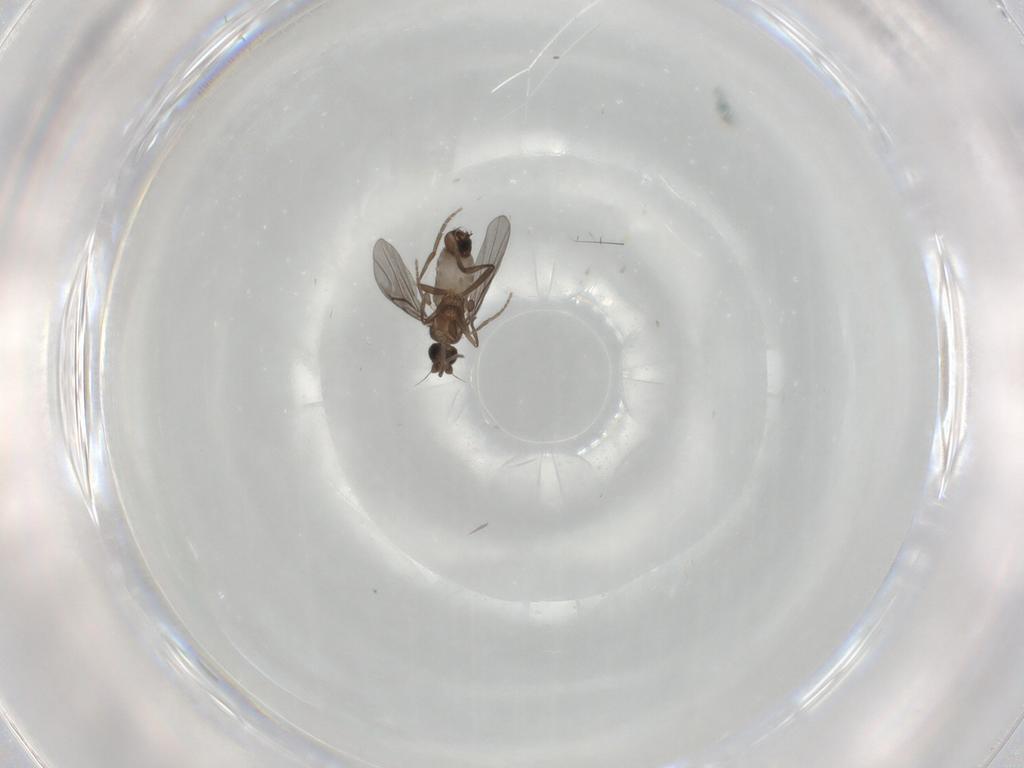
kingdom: Animalia
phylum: Arthropoda
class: Insecta
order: Diptera
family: Phoridae
